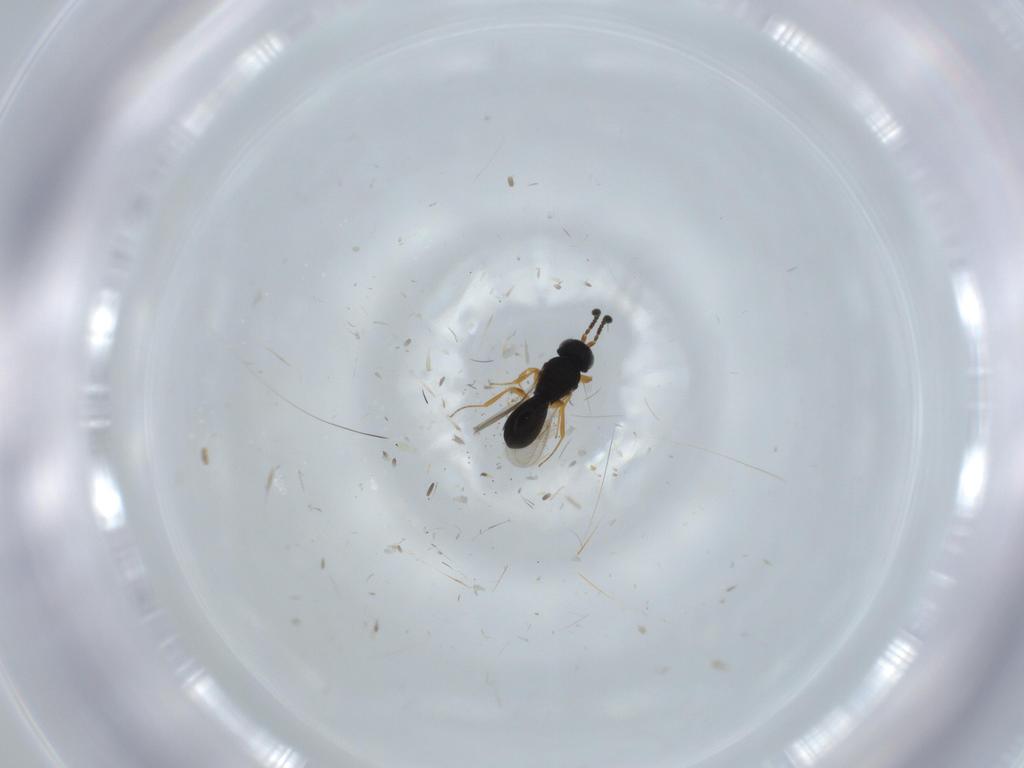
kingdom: Animalia
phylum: Arthropoda
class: Insecta
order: Hymenoptera
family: Scelionidae
